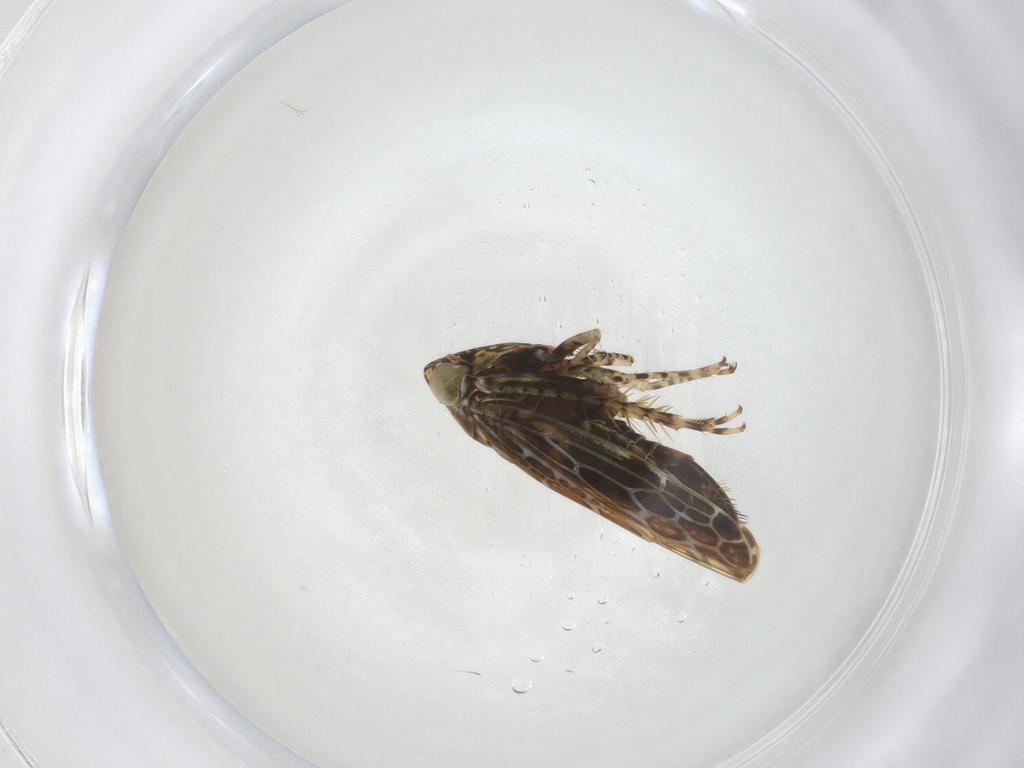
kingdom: Animalia
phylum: Arthropoda
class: Insecta
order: Hemiptera
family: Cicadellidae
